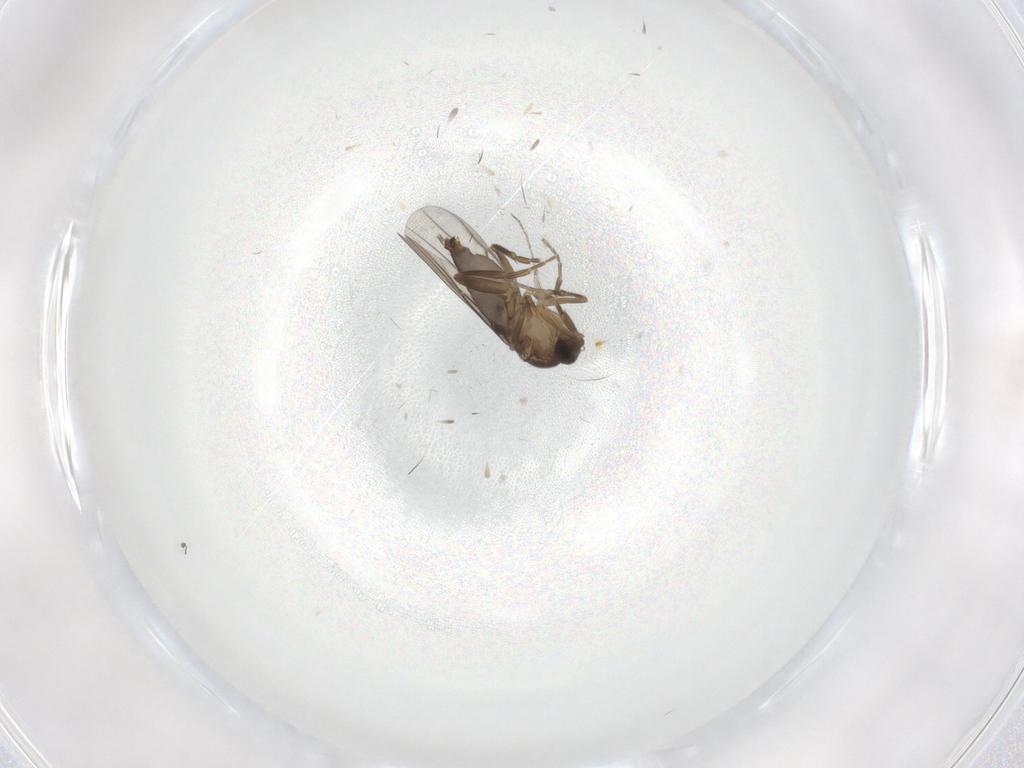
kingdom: Animalia
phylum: Arthropoda
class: Insecta
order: Diptera
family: Phoridae
